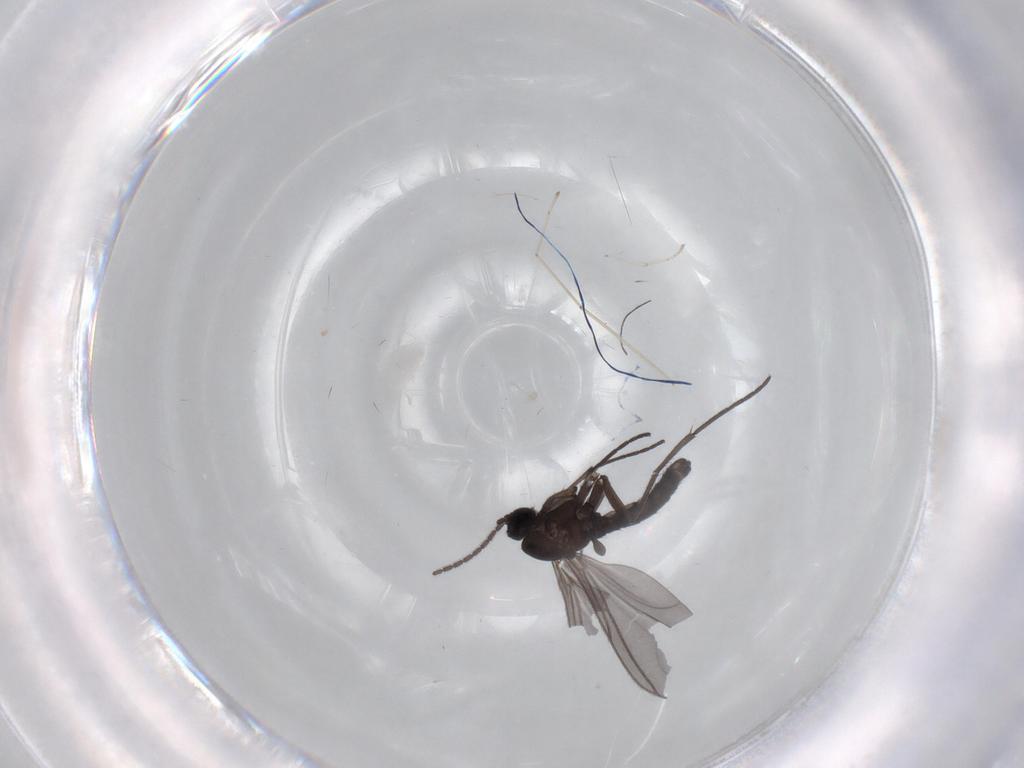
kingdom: Animalia
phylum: Arthropoda
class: Insecta
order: Diptera
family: Sciaridae
